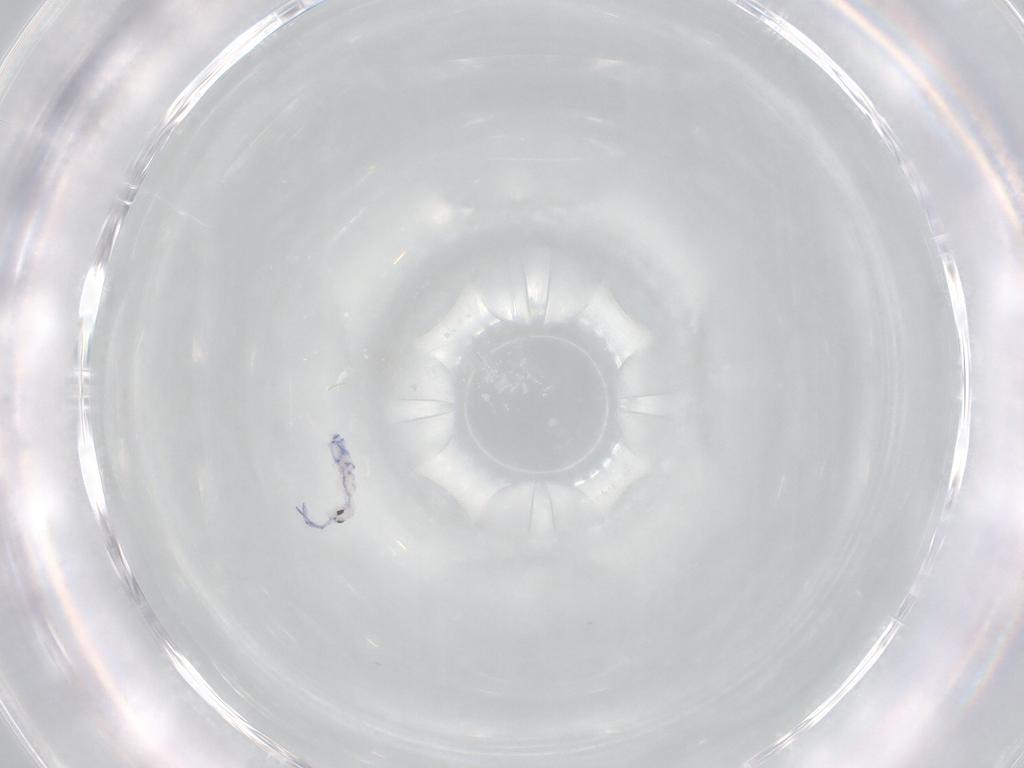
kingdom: Animalia
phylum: Arthropoda
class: Collembola
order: Entomobryomorpha
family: Entomobryidae
